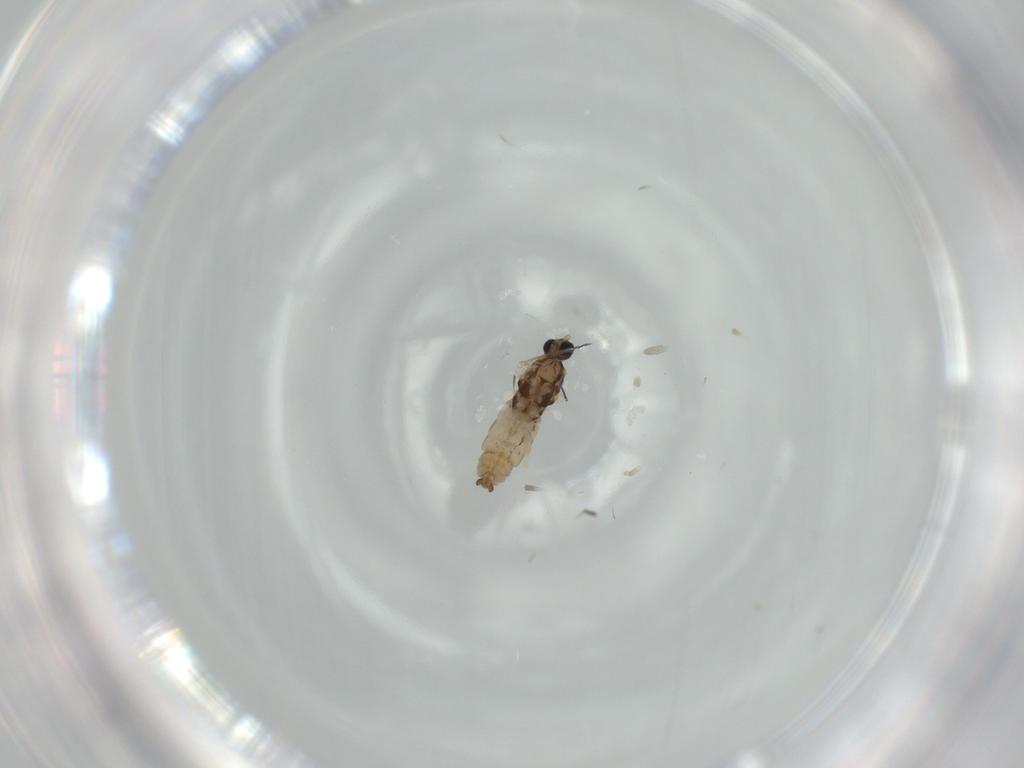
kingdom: Animalia
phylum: Arthropoda
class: Insecta
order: Diptera
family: Cecidomyiidae
